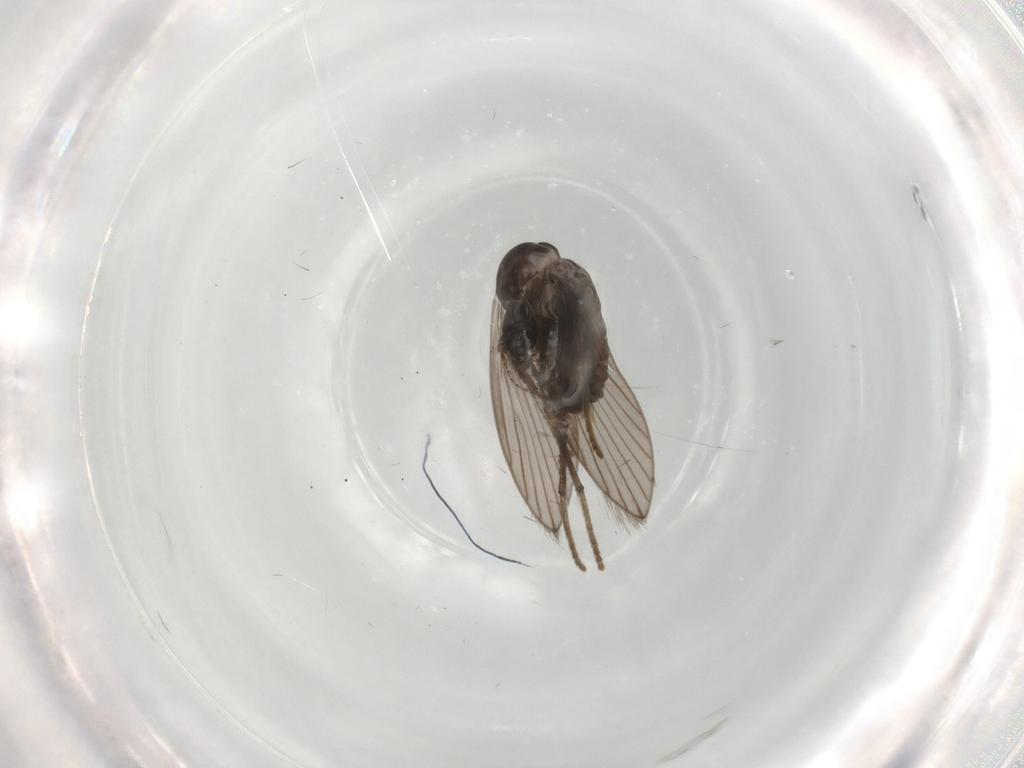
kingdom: Animalia
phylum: Arthropoda
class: Insecta
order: Diptera
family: Psychodidae
